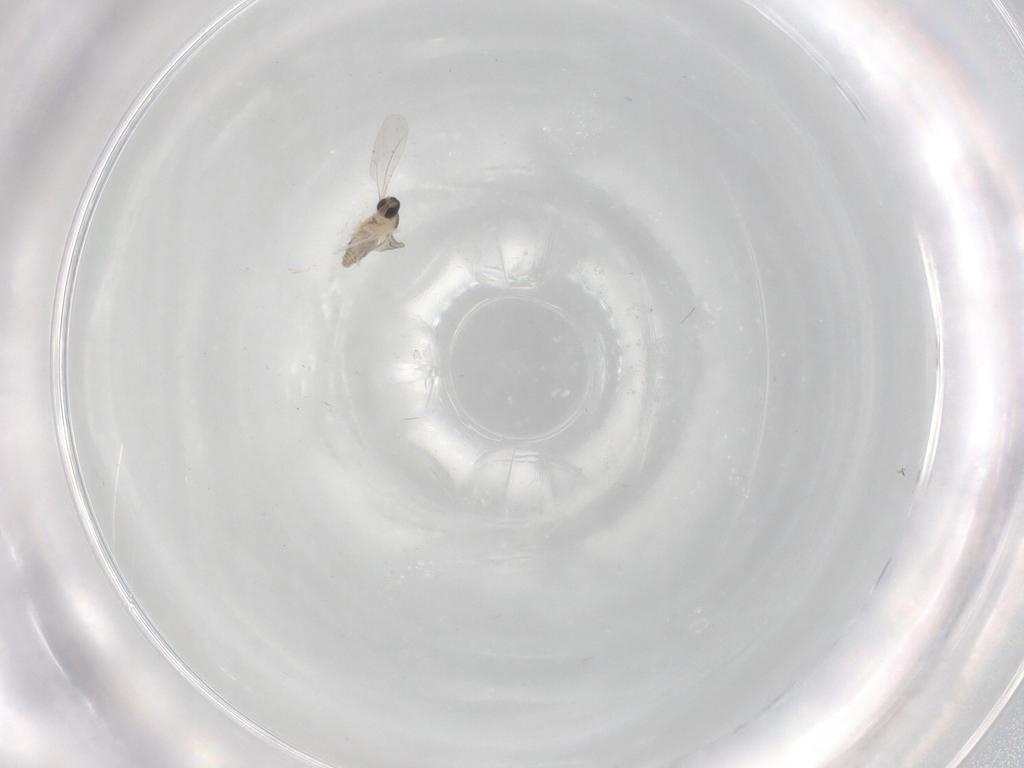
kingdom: Animalia
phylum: Arthropoda
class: Insecta
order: Diptera
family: Cecidomyiidae
